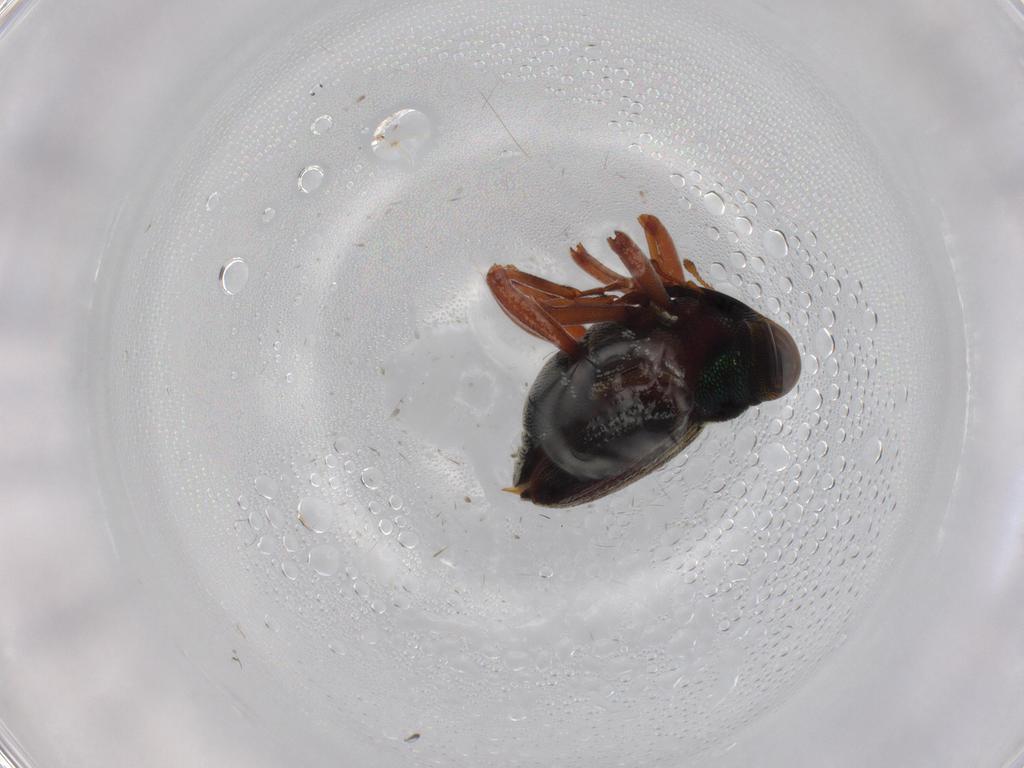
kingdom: Animalia
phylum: Arthropoda
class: Insecta
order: Coleoptera
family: Curculionidae
